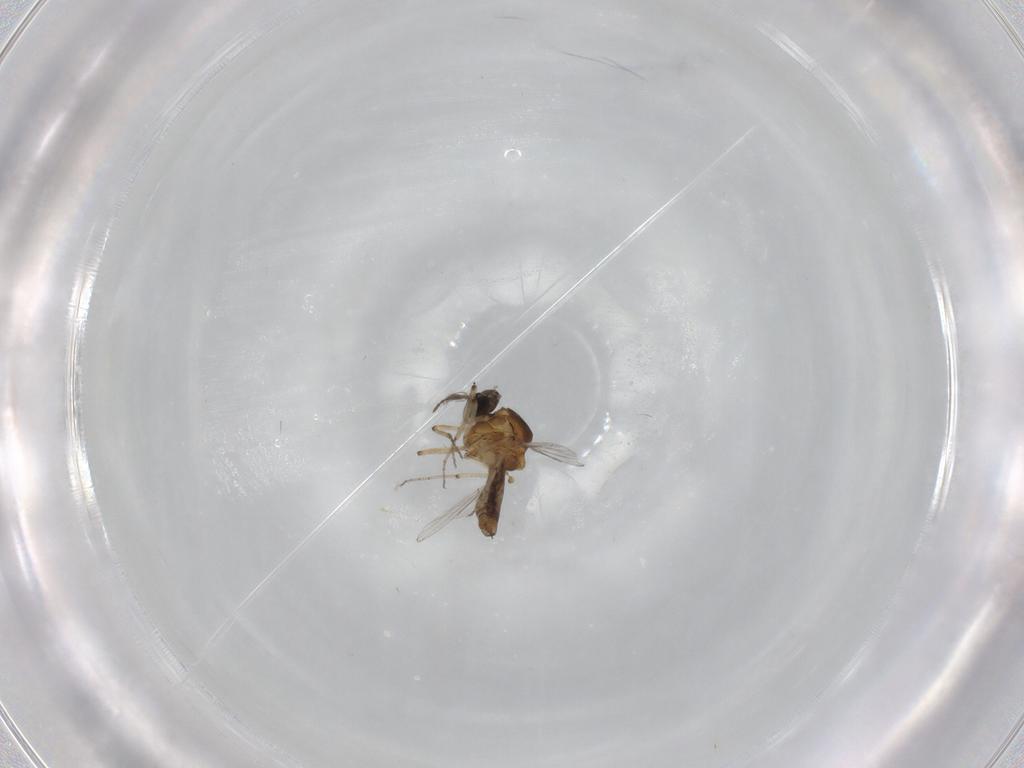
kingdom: Animalia
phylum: Arthropoda
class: Insecta
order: Diptera
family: Ceratopogonidae
